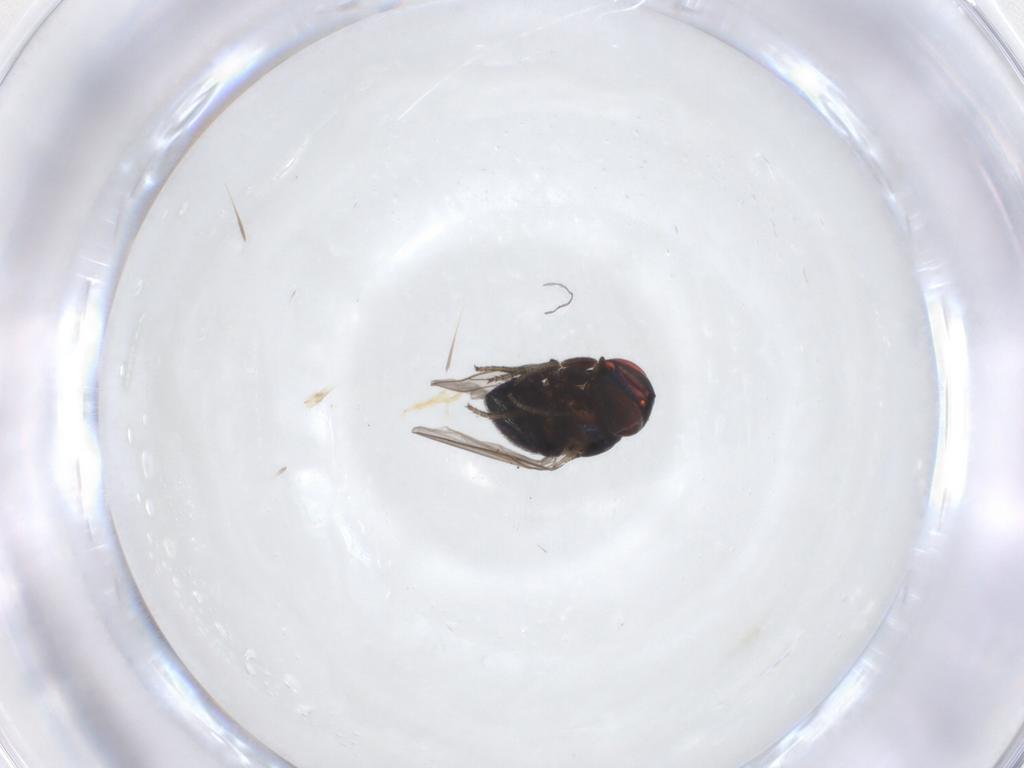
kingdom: Animalia
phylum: Arthropoda
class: Insecta
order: Diptera
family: Cryptochetidae
